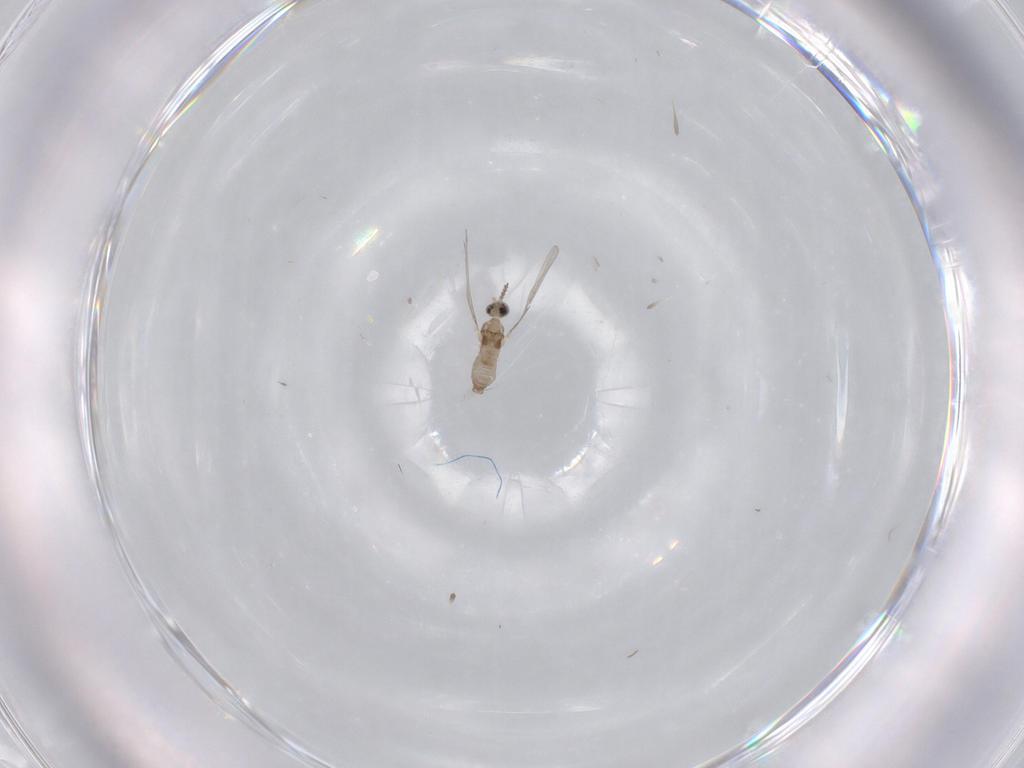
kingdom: Animalia
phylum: Arthropoda
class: Insecta
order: Diptera
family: Cecidomyiidae
